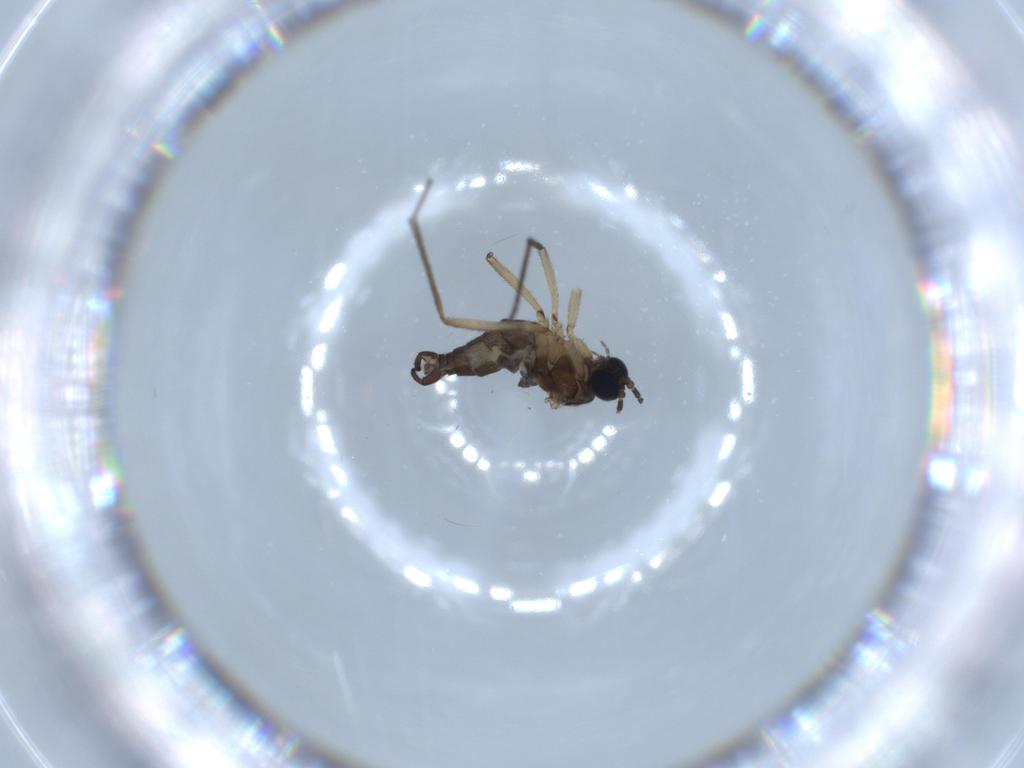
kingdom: Animalia
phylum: Arthropoda
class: Insecta
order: Diptera
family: Sciaridae
